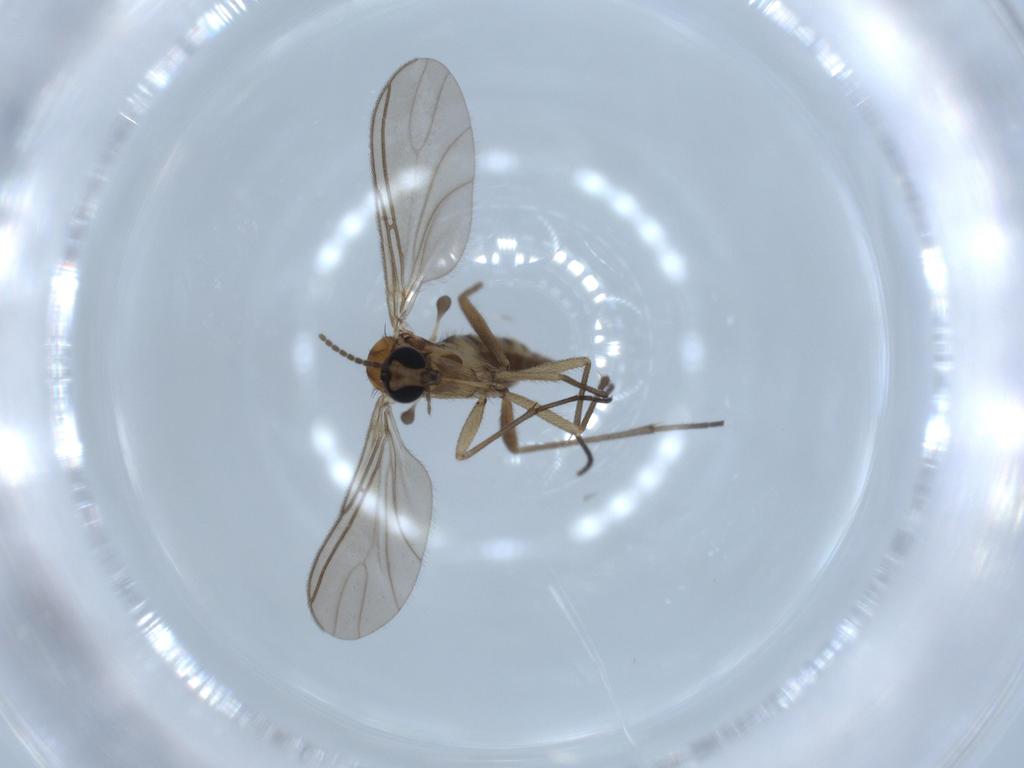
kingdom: Animalia
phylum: Arthropoda
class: Insecta
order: Diptera
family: Sciaridae
